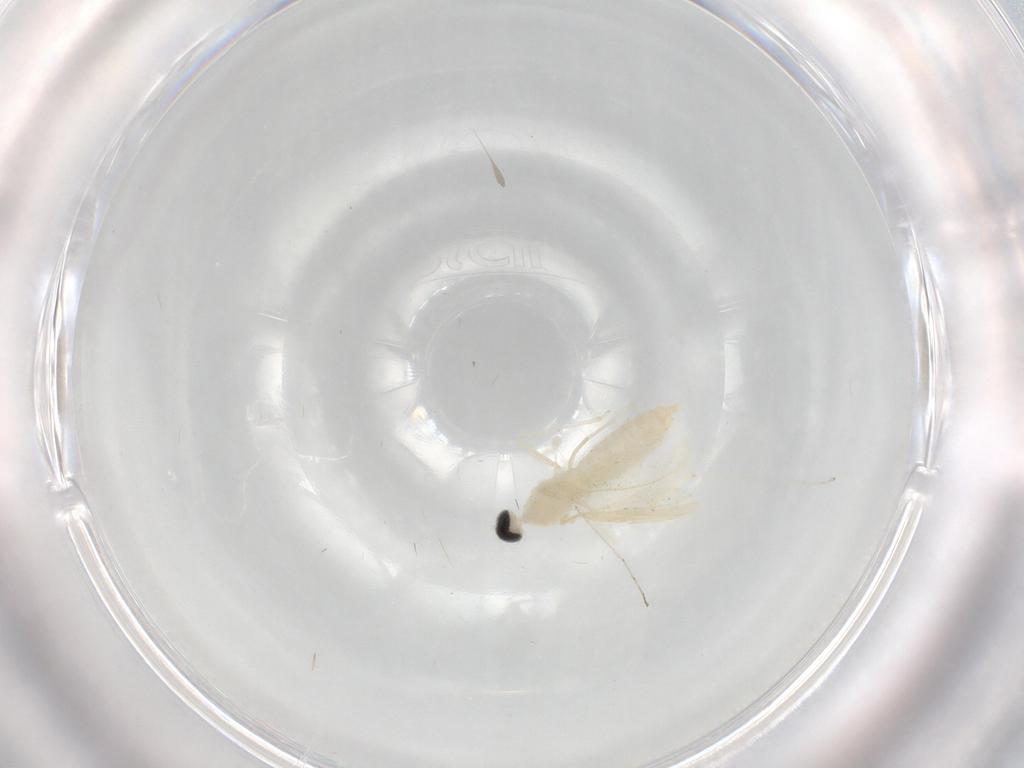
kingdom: Animalia
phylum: Arthropoda
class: Insecta
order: Diptera
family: Cecidomyiidae
